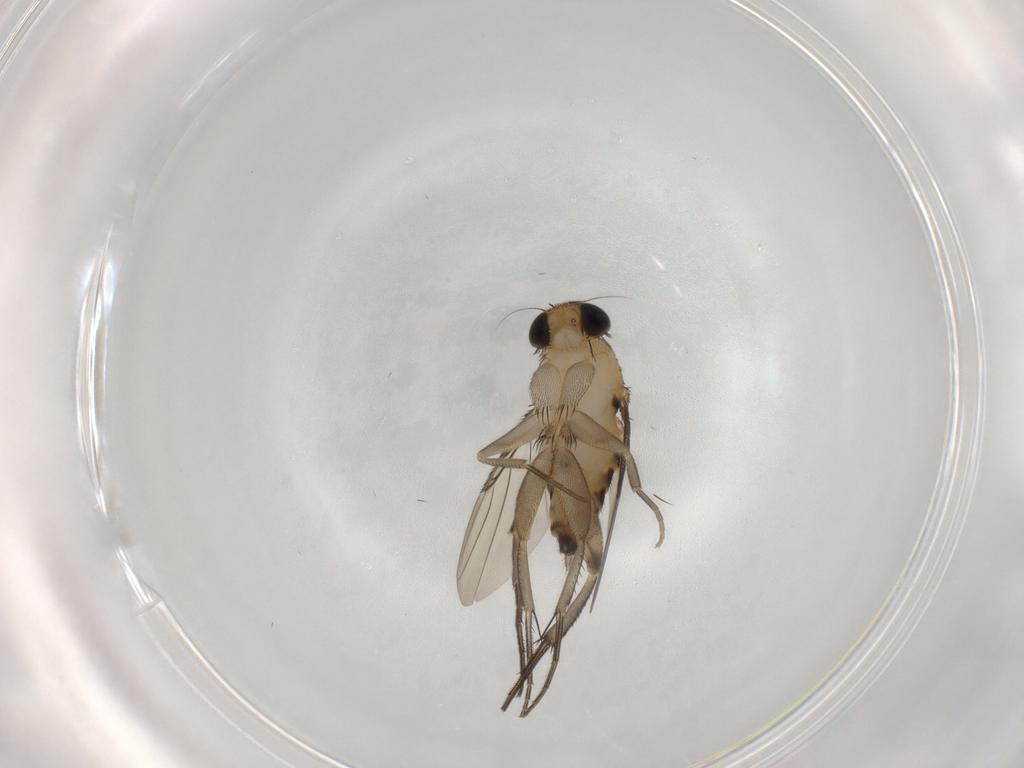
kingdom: Animalia
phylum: Arthropoda
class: Insecta
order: Diptera
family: Phoridae
